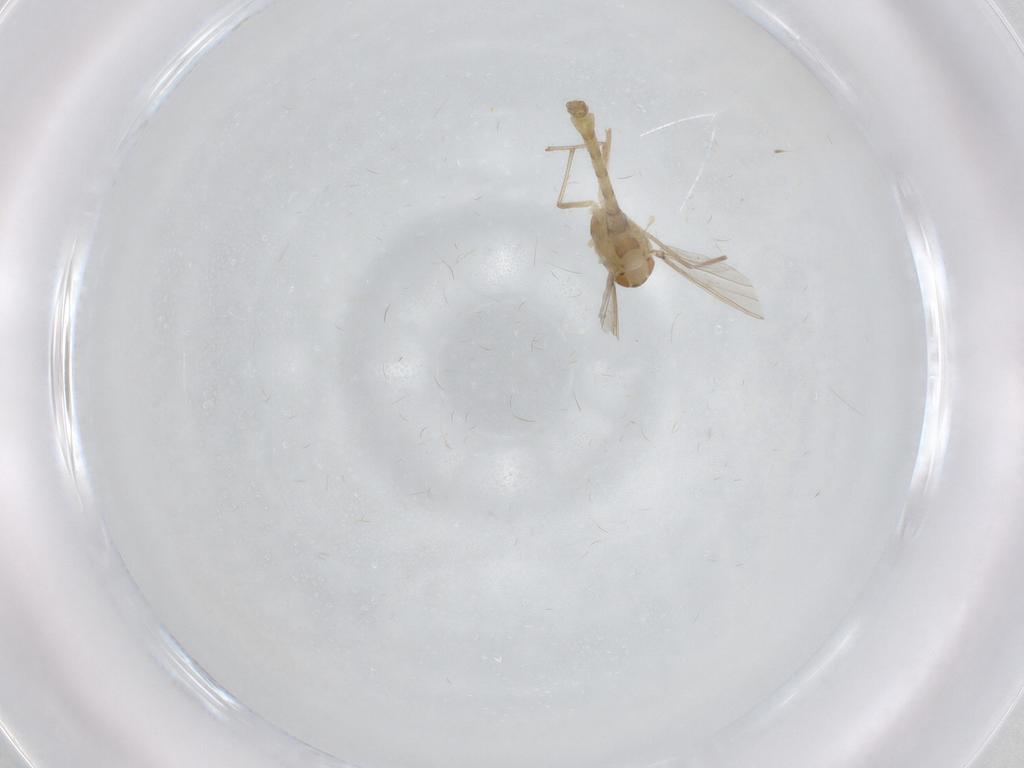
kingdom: Animalia
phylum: Arthropoda
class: Insecta
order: Diptera
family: Chironomidae
